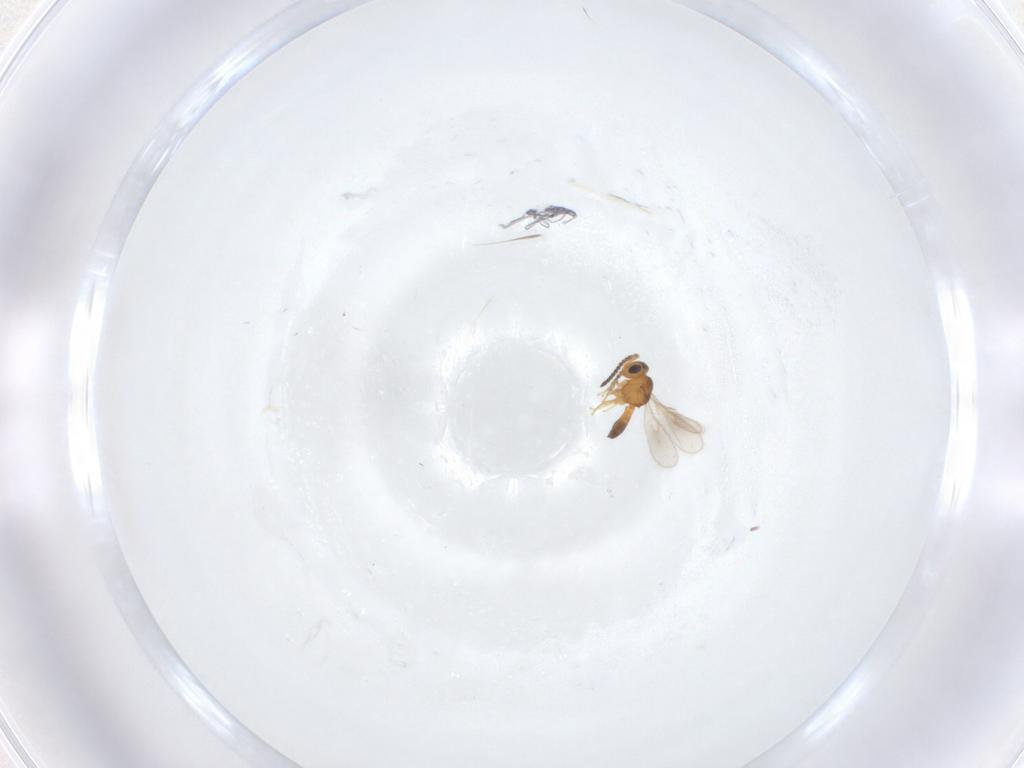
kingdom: Animalia
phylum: Arthropoda
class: Insecta
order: Hymenoptera
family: Scelionidae
